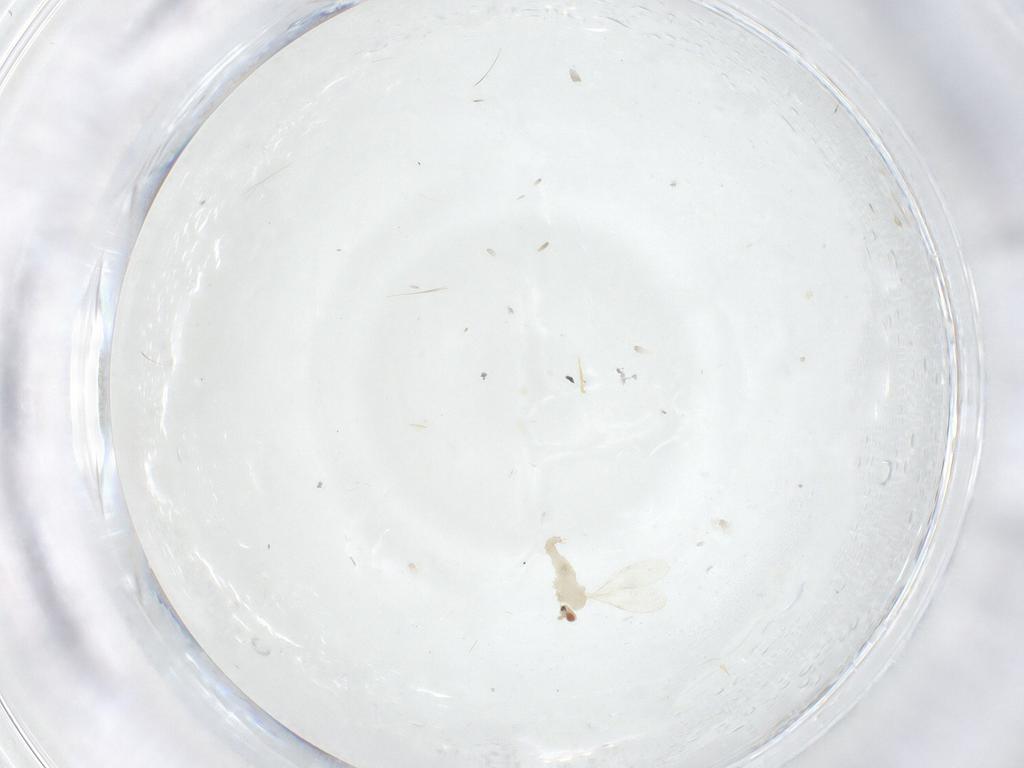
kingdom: Animalia
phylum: Arthropoda
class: Insecta
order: Diptera
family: Cecidomyiidae
